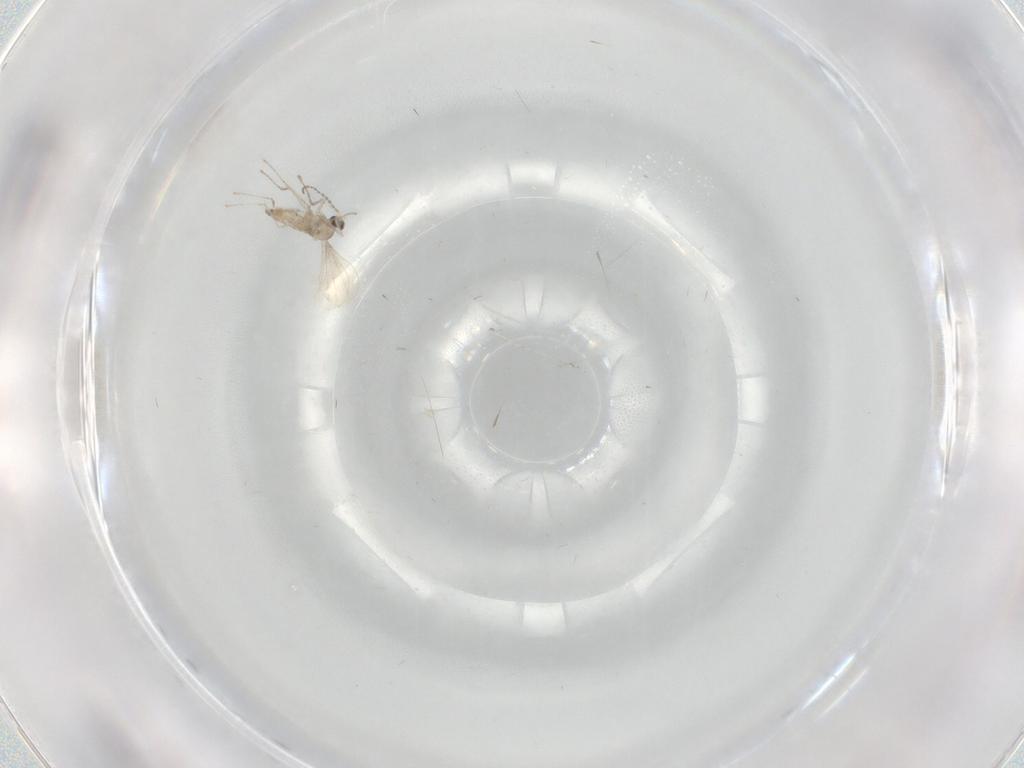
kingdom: Animalia
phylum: Arthropoda
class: Insecta
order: Diptera
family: Cecidomyiidae
